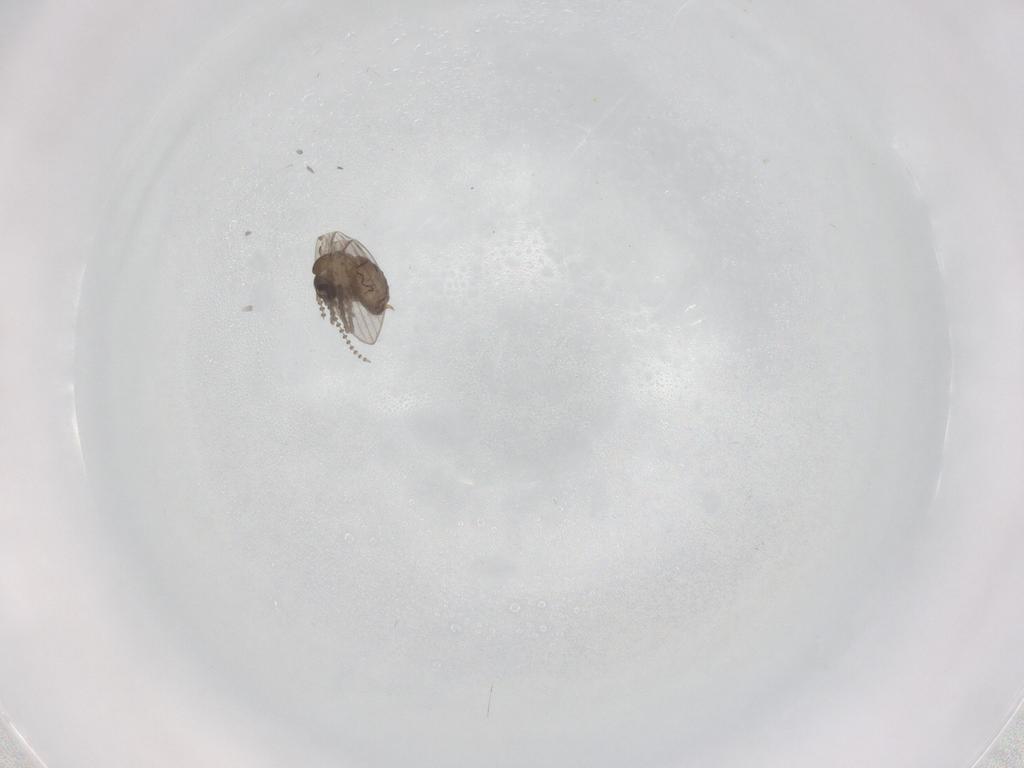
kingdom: Animalia
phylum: Arthropoda
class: Insecta
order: Diptera
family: Psychodidae
